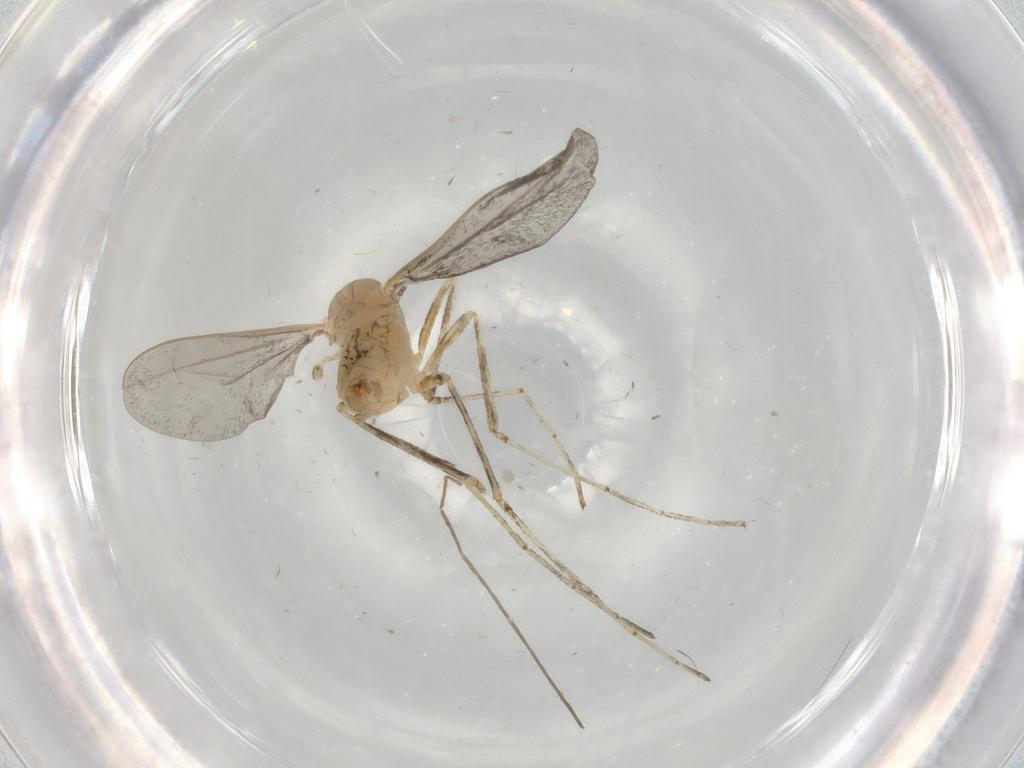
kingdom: Animalia
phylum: Arthropoda
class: Insecta
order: Diptera
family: Cecidomyiidae
